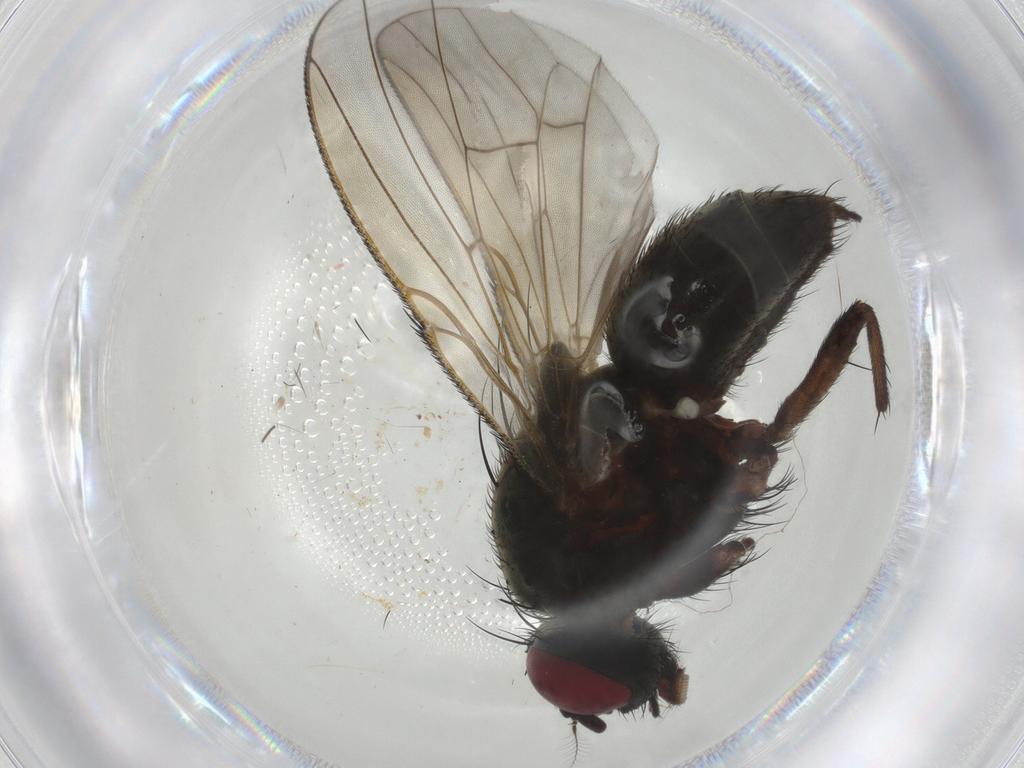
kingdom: Animalia
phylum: Arthropoda
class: Insecta
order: Diptera
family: Muscidae
